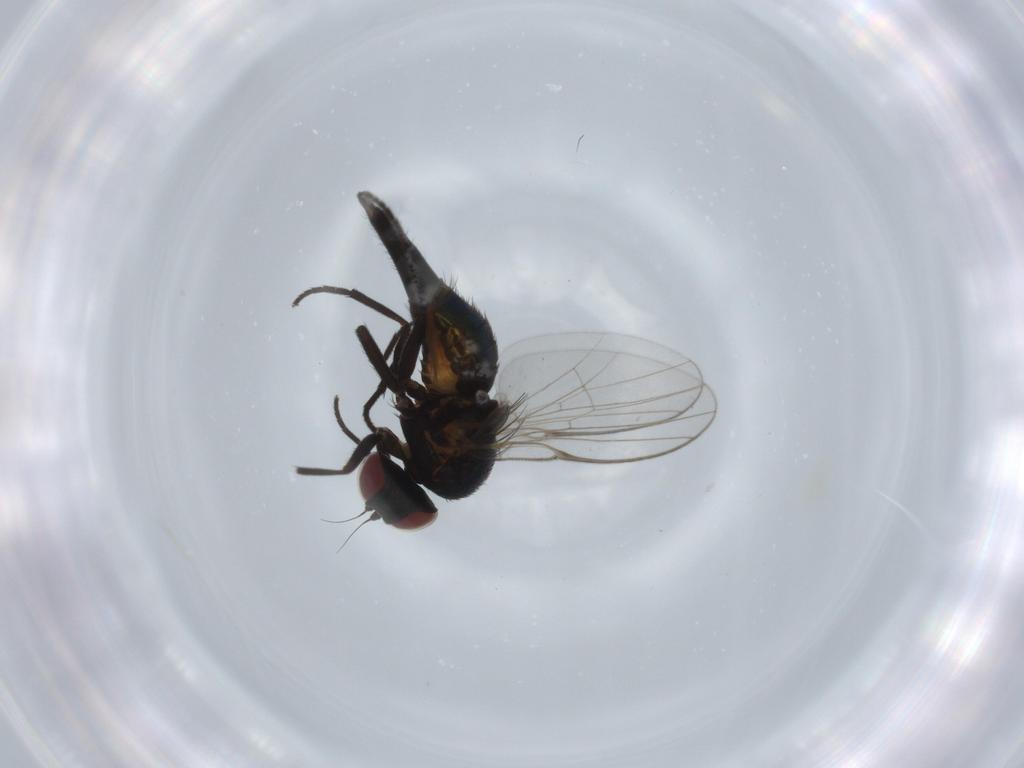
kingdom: Animalia
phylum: Arthropoda
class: Insecta
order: Diptera
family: Agromyzidae
